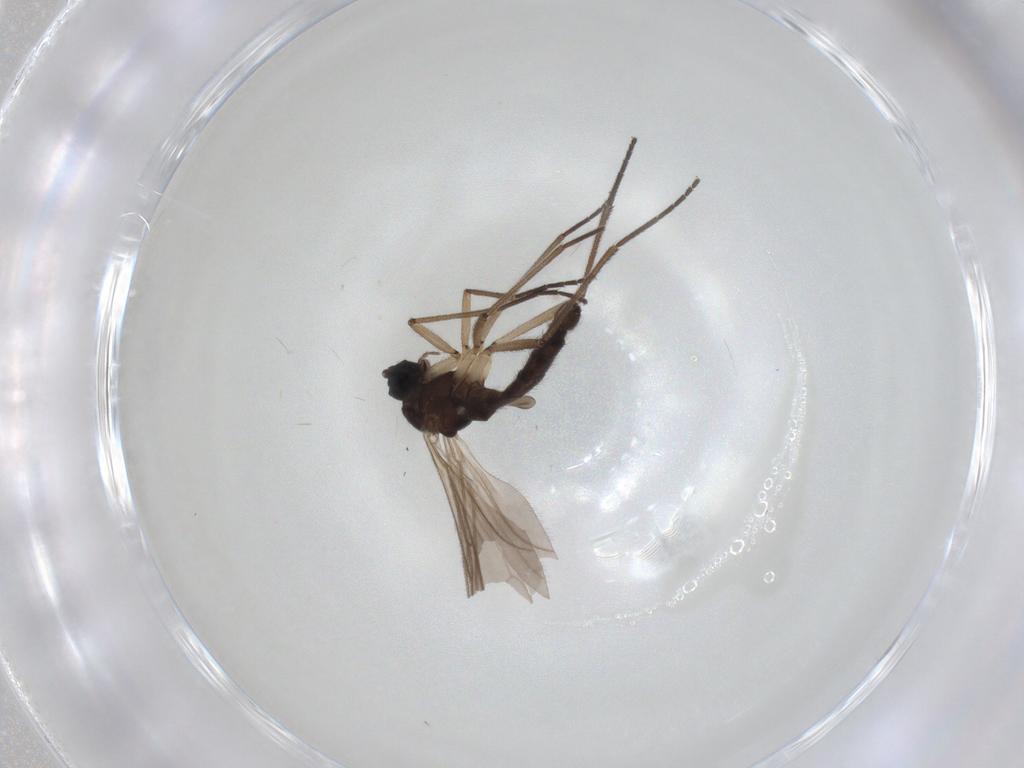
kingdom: Animalia
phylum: Arthropoda
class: Insecta
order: Diptera
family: Sciaridae
